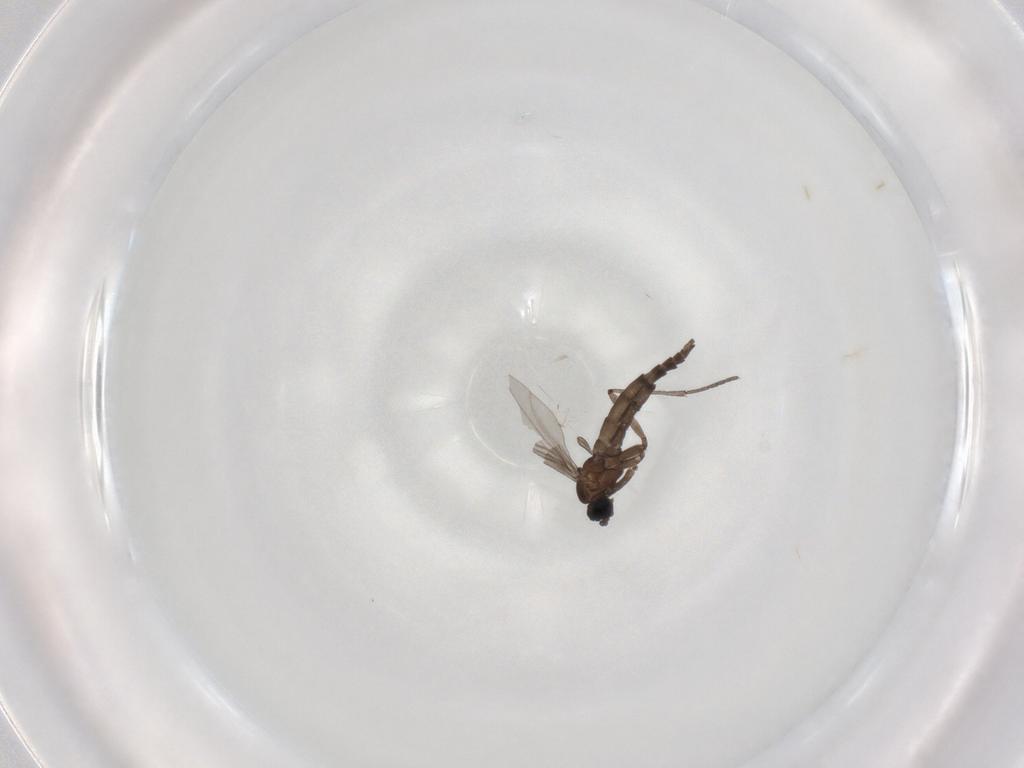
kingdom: Animalia
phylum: Arthropoda
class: Insecta
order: Diptera
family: Sciaridae
